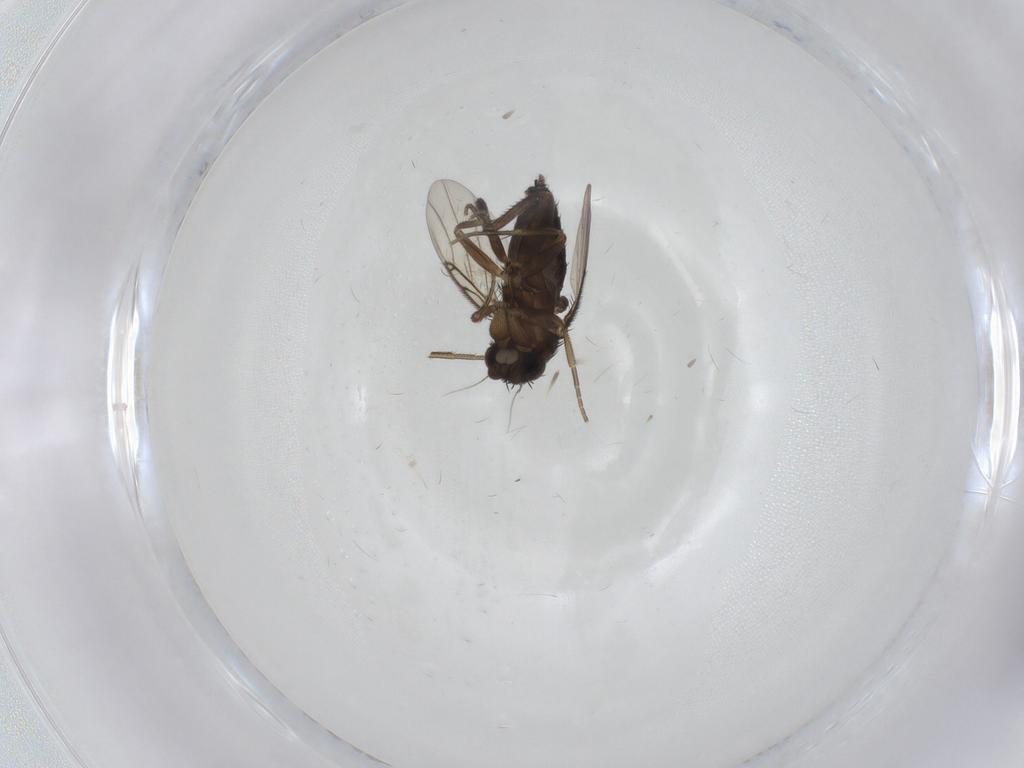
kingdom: Animalia
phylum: Arthropoda
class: Insecta
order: Diptera
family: Phoridae
